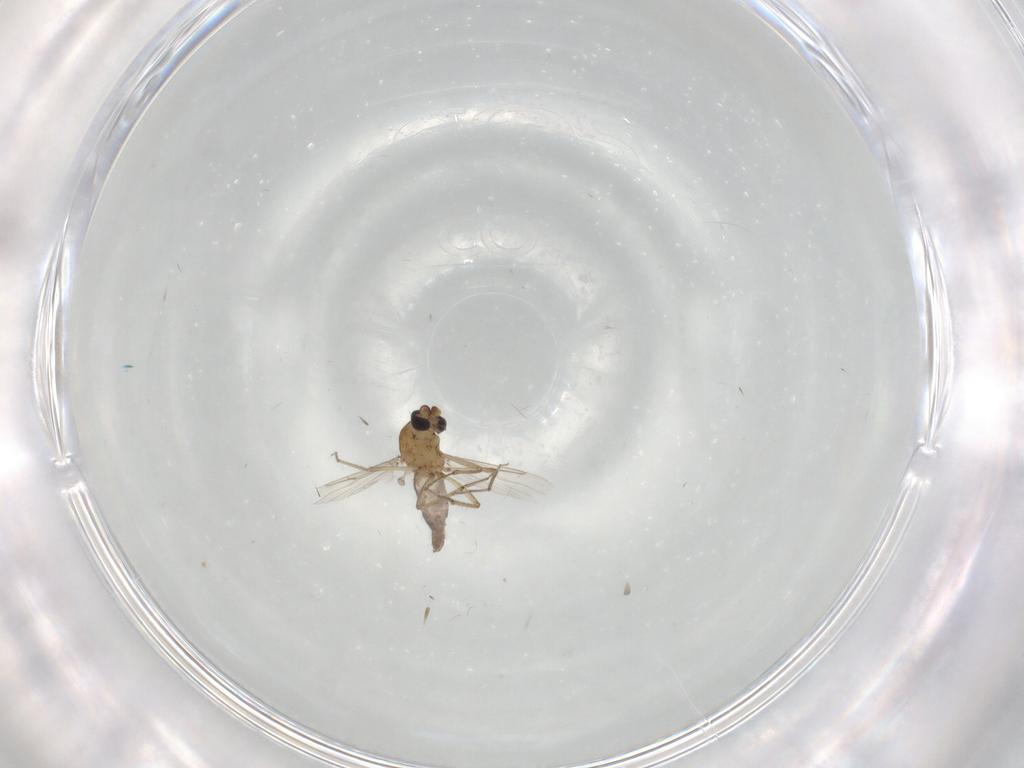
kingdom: Animalia
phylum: Arthropoda
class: Insecta
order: Diptera
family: Ceratopogonidae
